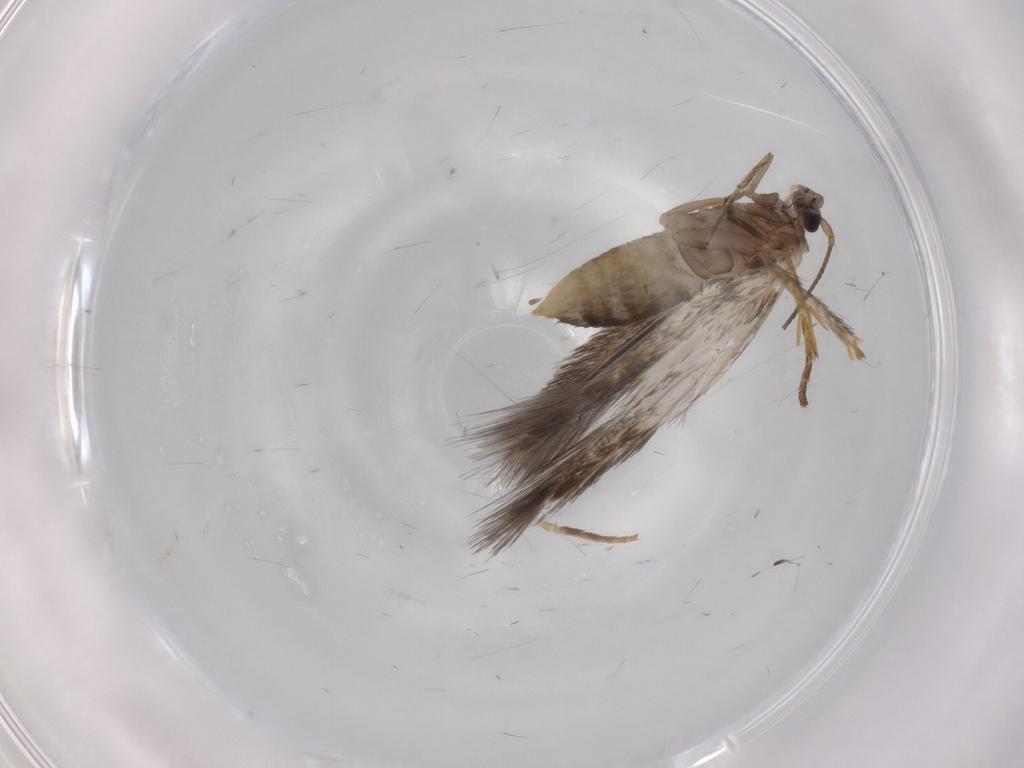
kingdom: Animalia
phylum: Arthropoda
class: Insecta
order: Lepidoptera
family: Nepticulidae
